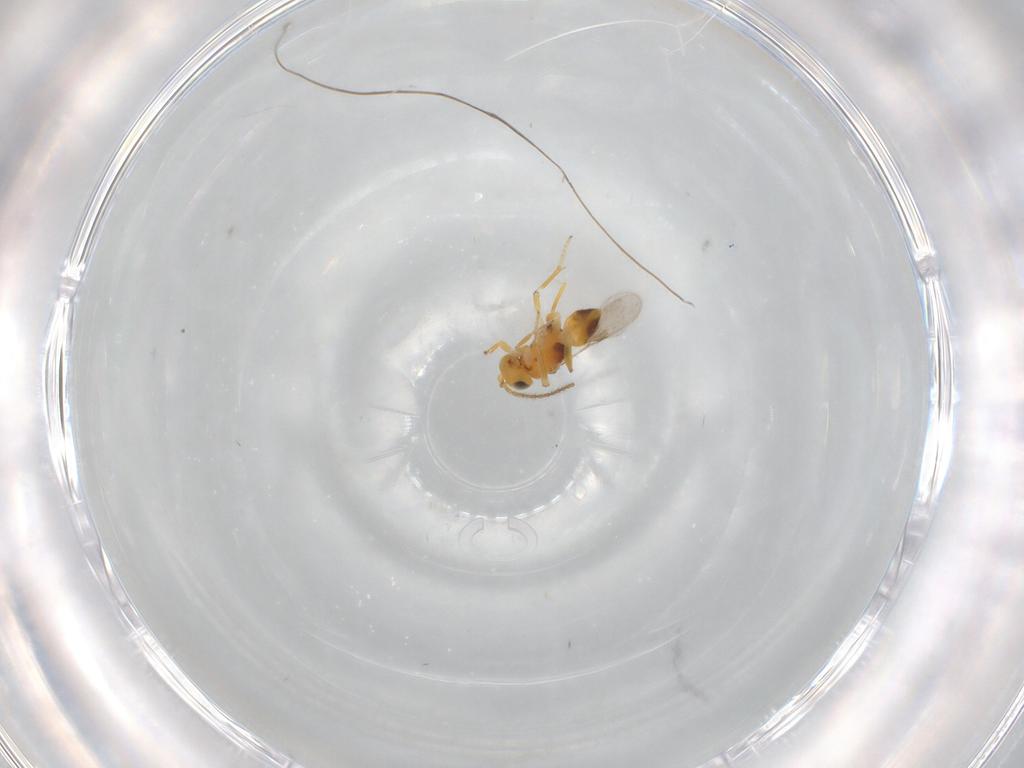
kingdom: Animalia
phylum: Arthropoda
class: Insecta
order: Hymenoptera
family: Encyrtidae
